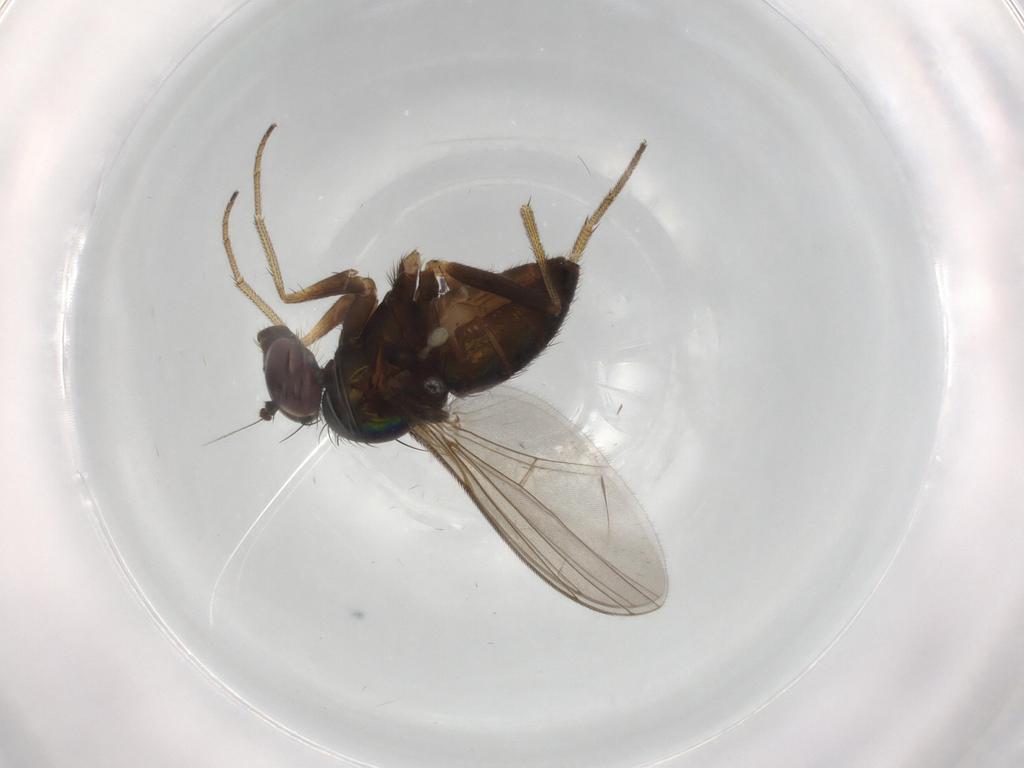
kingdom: Animalia
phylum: Arthropoda
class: Insecta
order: Diptera
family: Dolichopodidae
